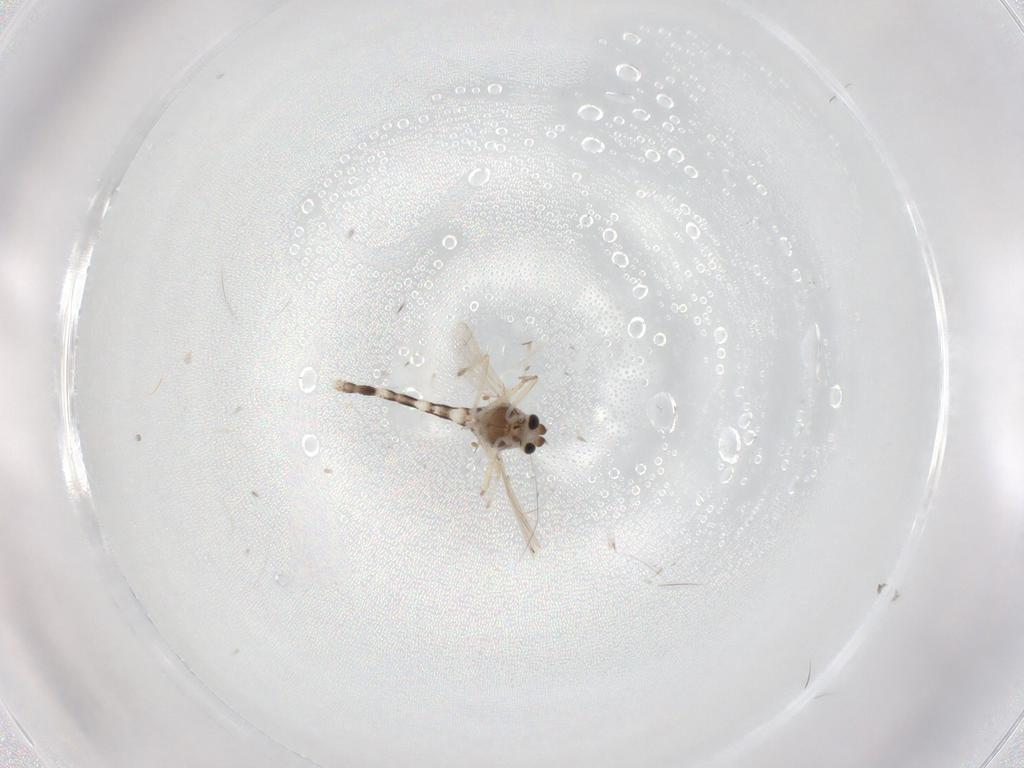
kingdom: Animalia
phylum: Arthropoda
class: Insecta
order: Diptera
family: Chironomidae
